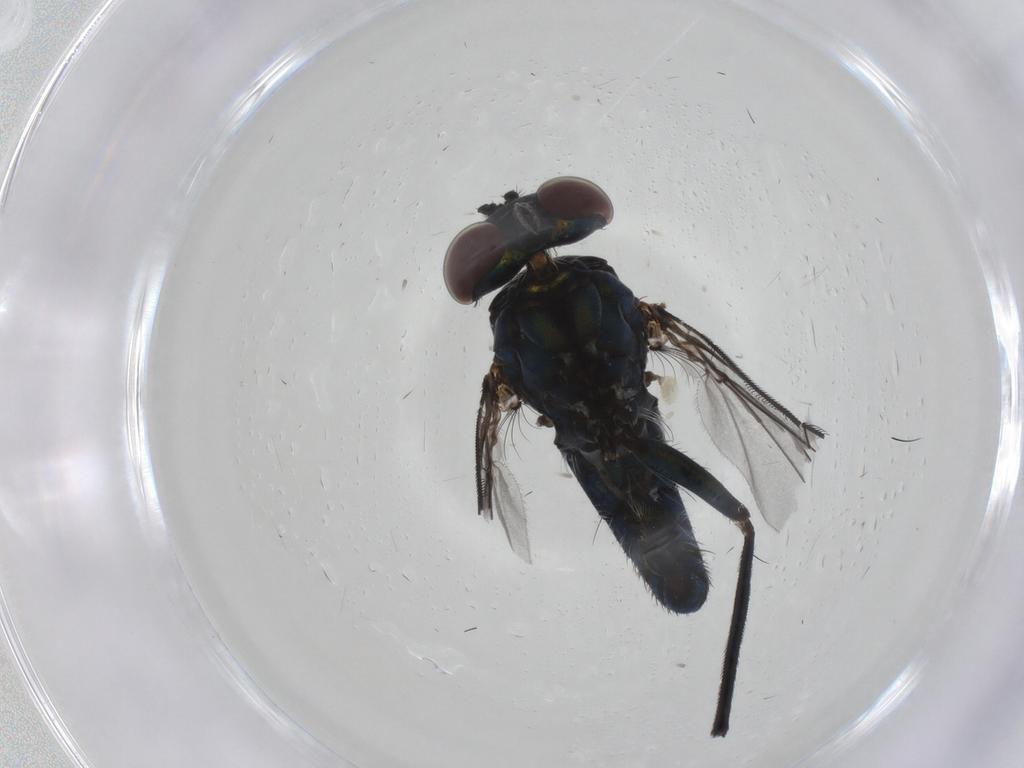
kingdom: Animalia
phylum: Arthropoda
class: Insecta
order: Diptera
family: Dolichopodidae
